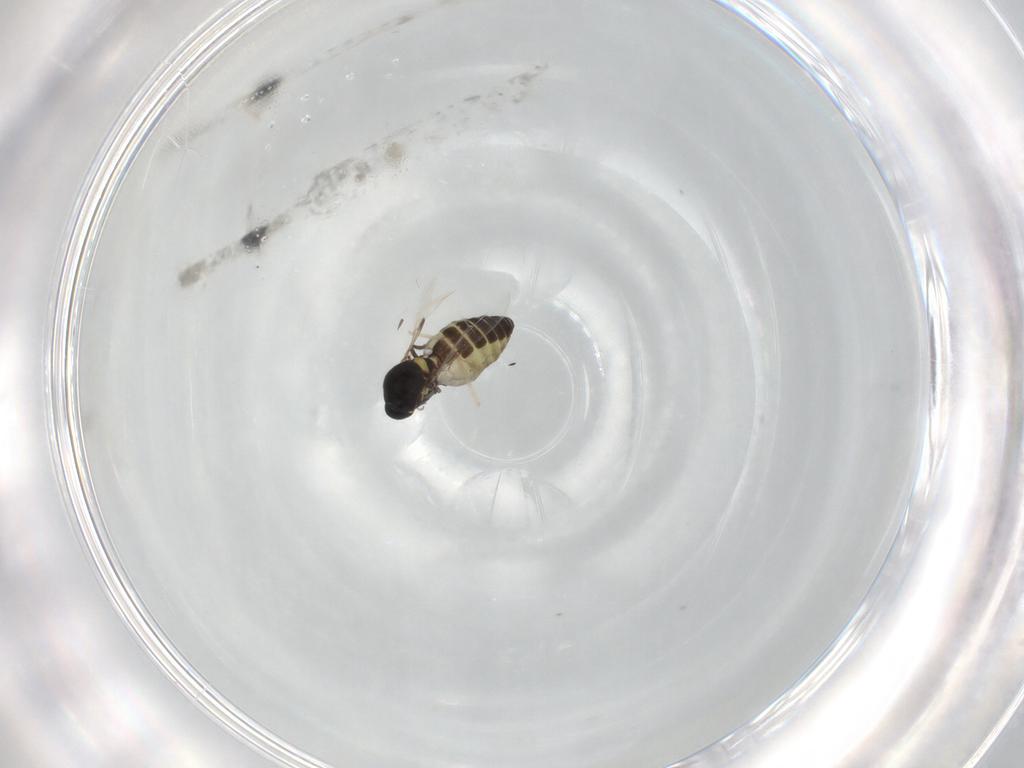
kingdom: Animalia
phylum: Arthropoda
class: Insecta
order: Diptera
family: Ceratopogonidae
